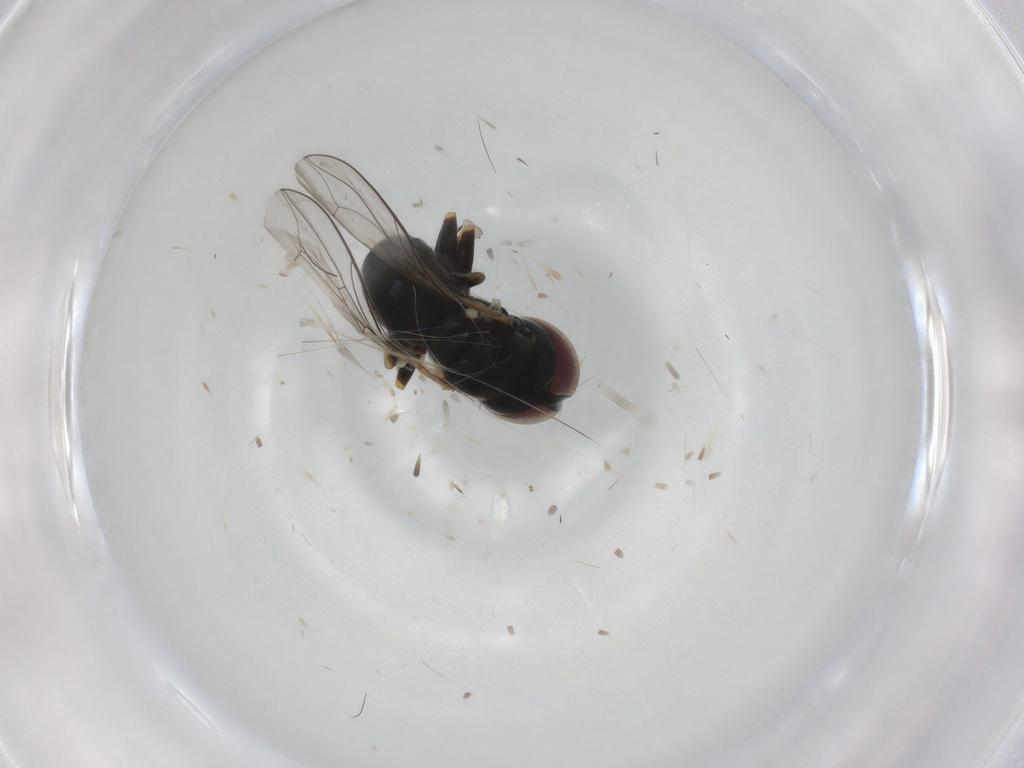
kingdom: Animalia
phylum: Arthropoda
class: Insecta
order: Diptera
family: Pipunculidae
